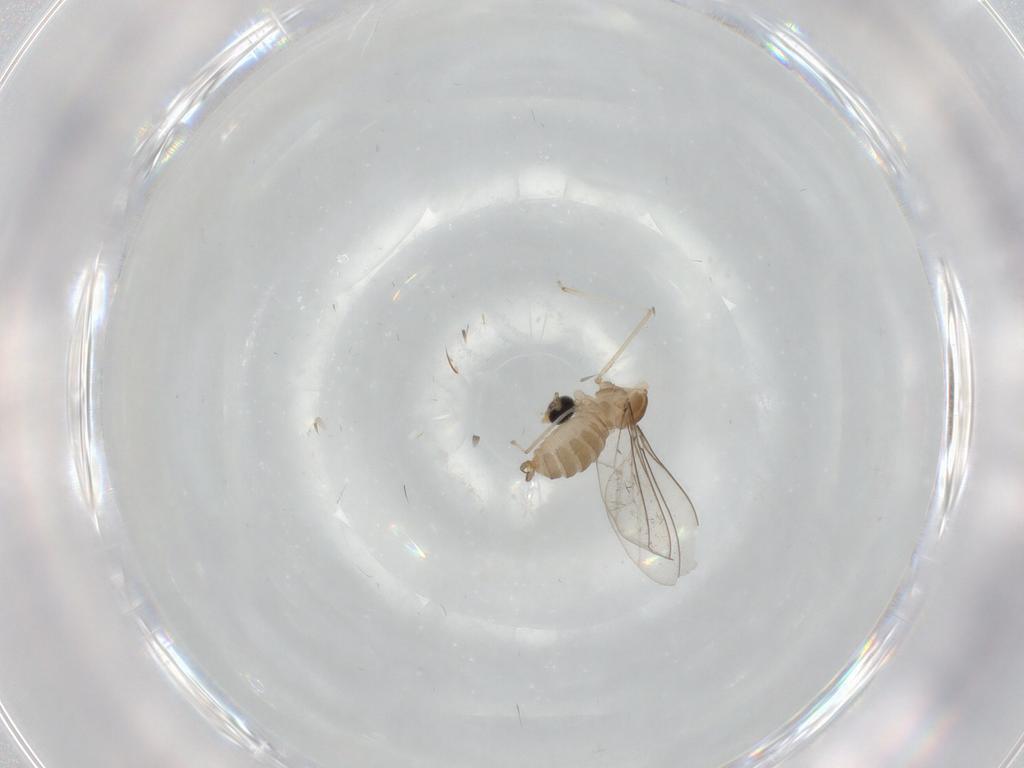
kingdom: Animalia
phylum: Arthropoda
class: Insecta
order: Diptera
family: Cecidomyiidae
